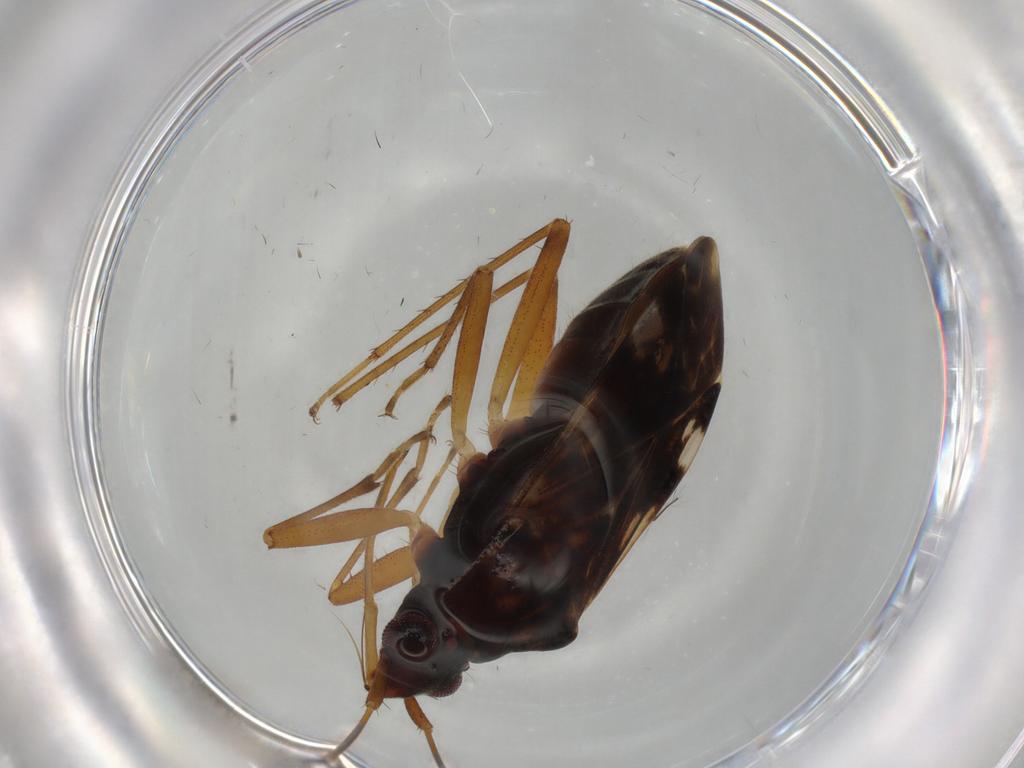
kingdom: Animalia
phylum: Arthropoda
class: Insecta
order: Hemiptera
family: Rhyparochromidae
